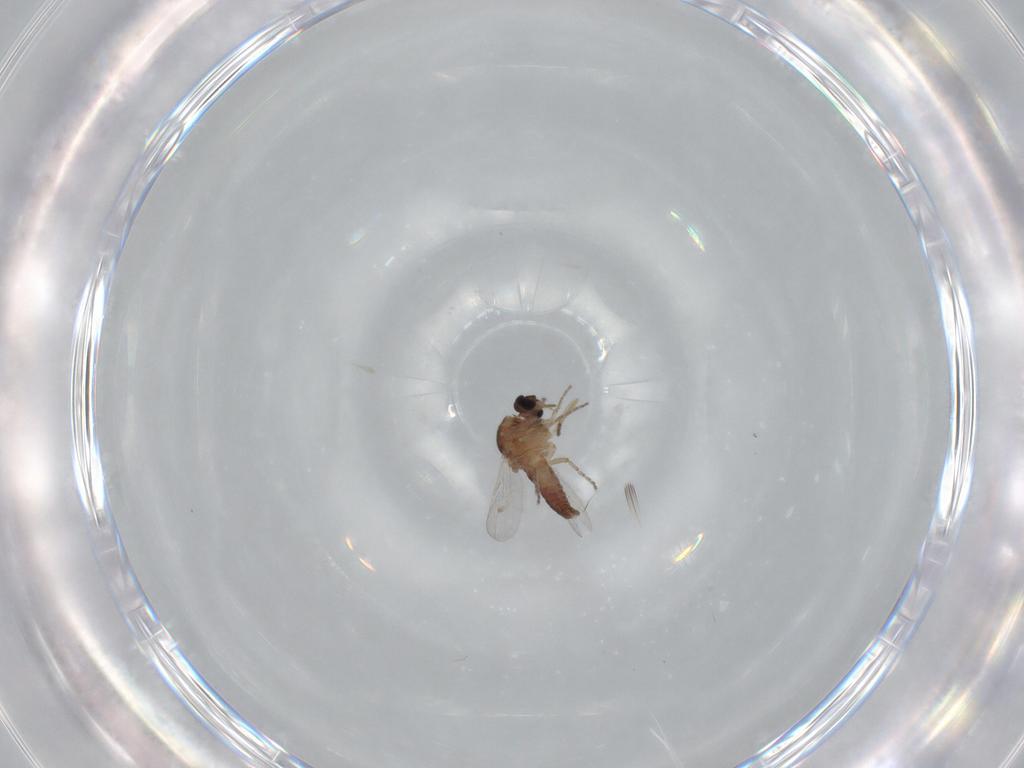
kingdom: Animalia
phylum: Arthropoda
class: Insecta
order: Diptera
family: Ceratopogonidae
